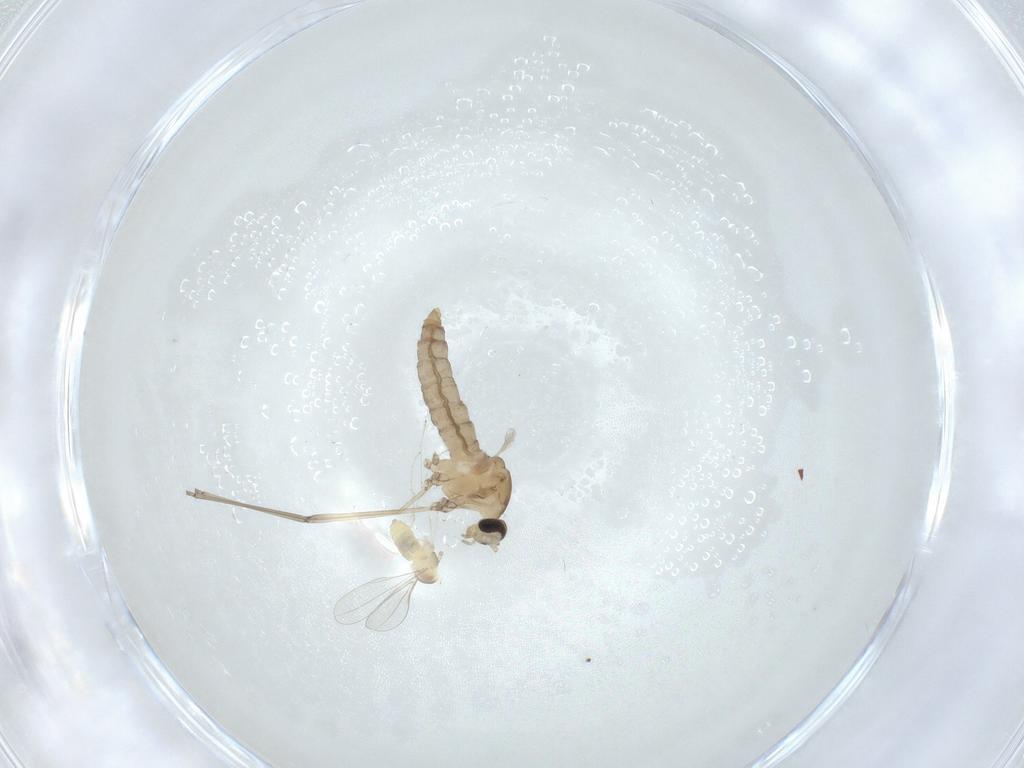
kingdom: Animalia
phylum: Arthropoda
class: Insecta
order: Diptera
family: Cecidomyiidae
